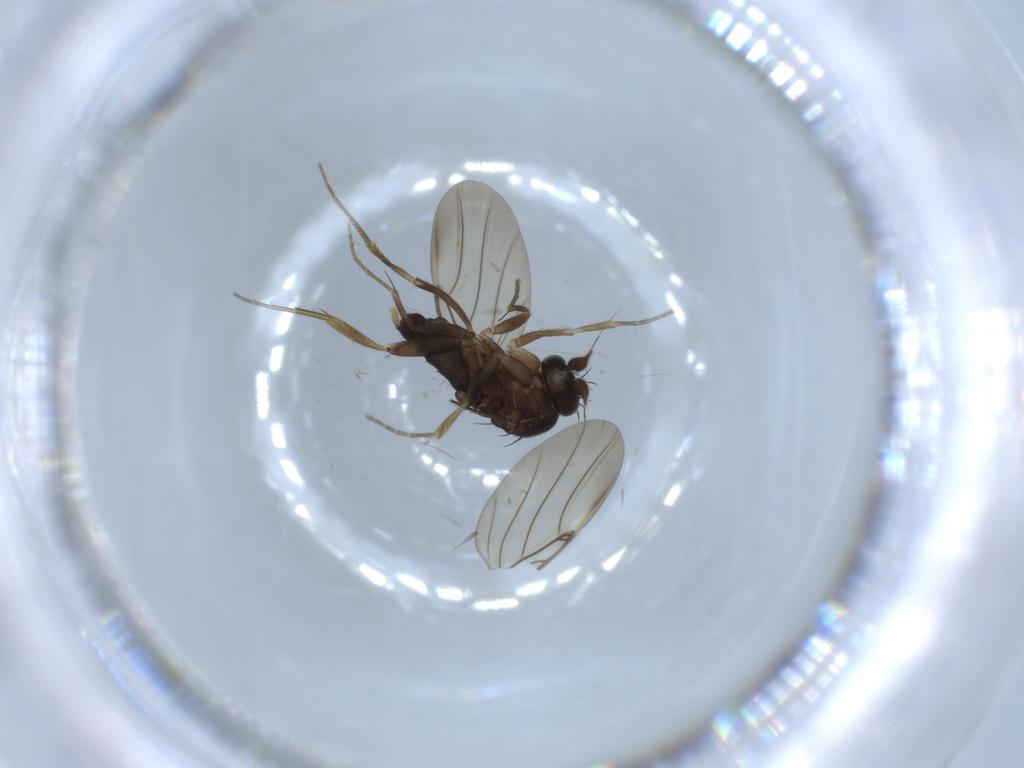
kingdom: Animalia
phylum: Arthropoda
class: Insecta
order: Diptera
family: Phoridae
